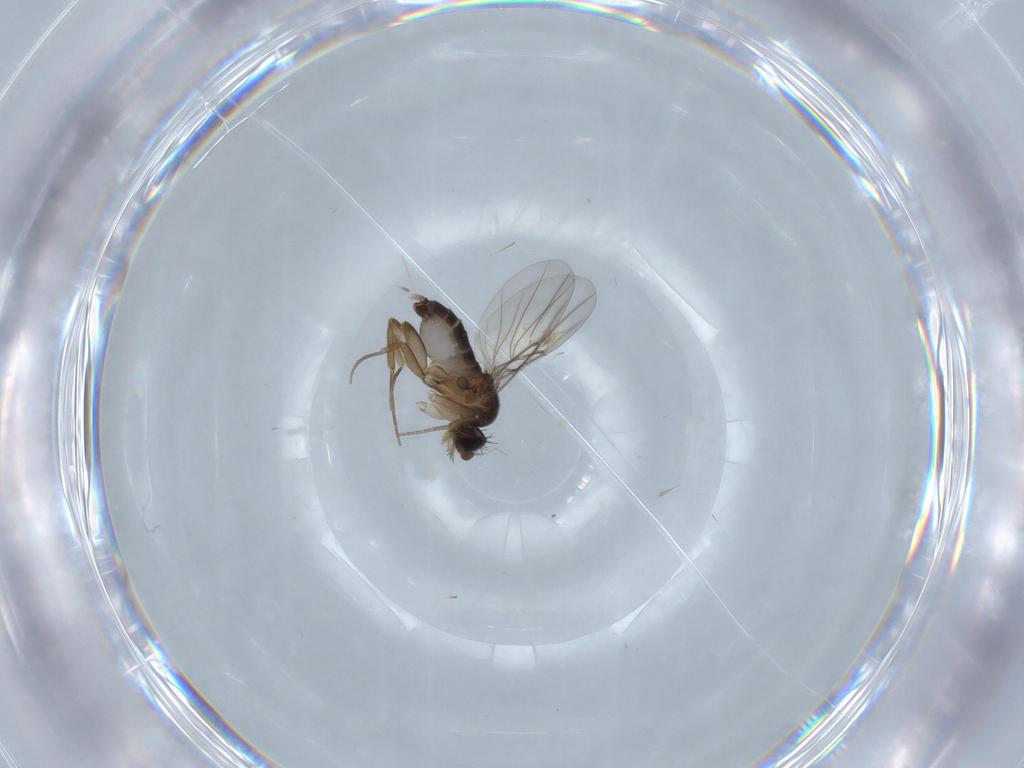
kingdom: Animalia
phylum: Arthropoda
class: Insecta
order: Diptera
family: Phoridae
